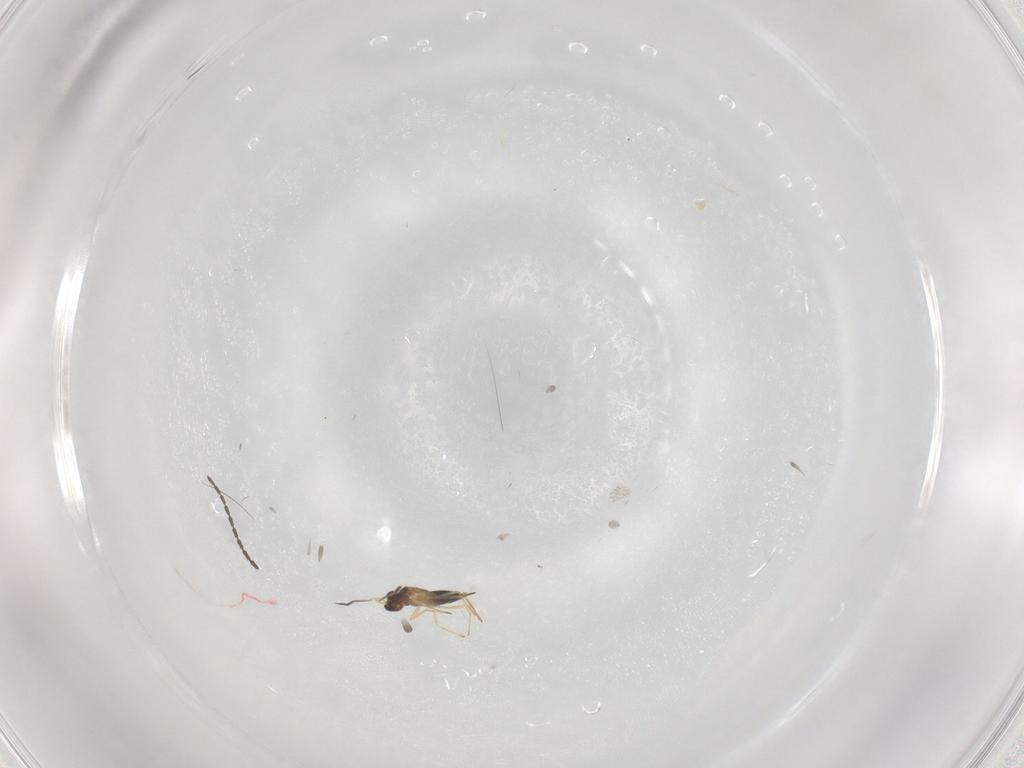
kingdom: Animalia
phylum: Arthropoda
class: Insecta
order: Hymenoptera
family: Mymaridae
